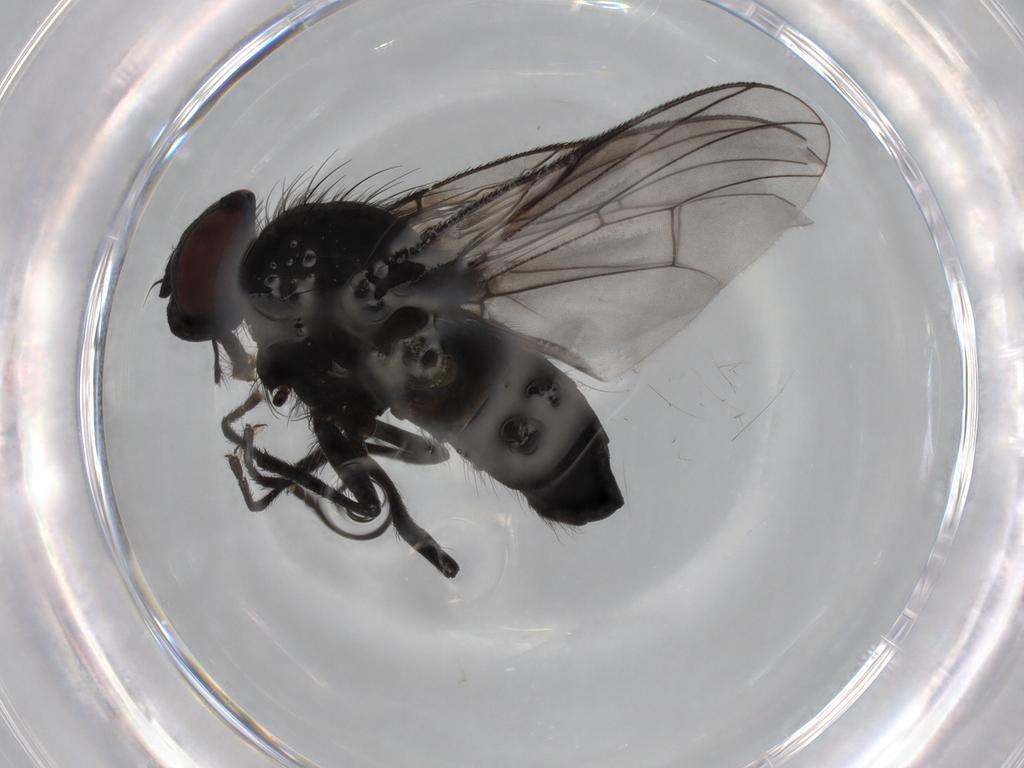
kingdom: Animalia
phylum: Arthropoda
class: Insecta
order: Diptera
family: Muscidae
